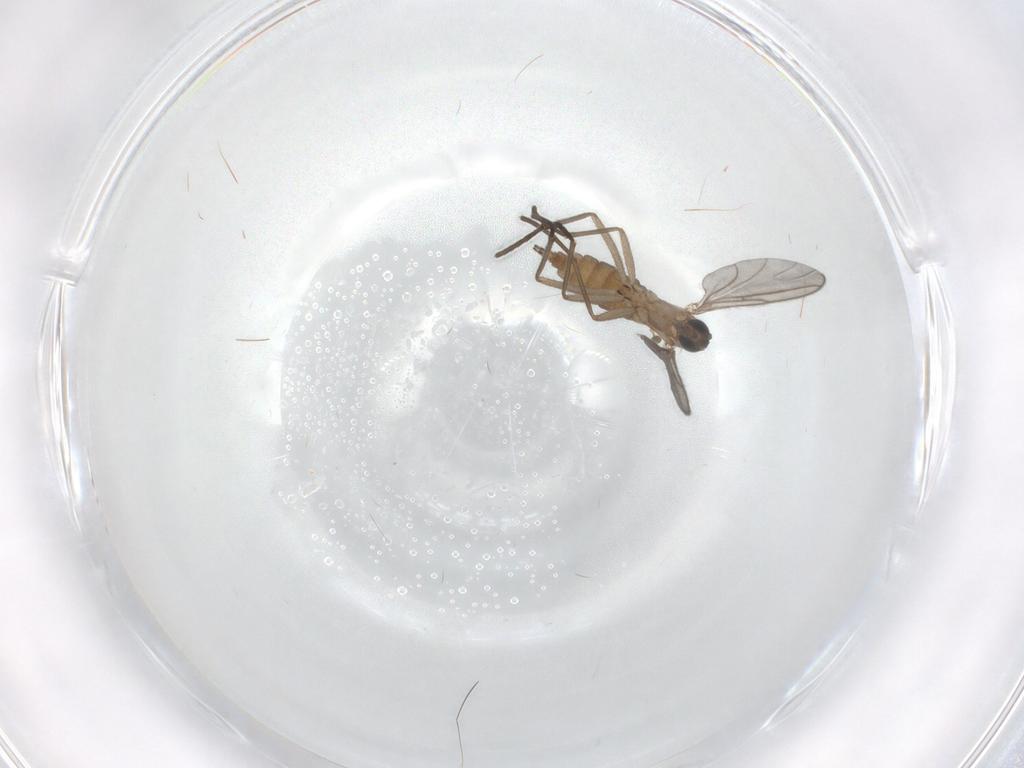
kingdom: Animalia
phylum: Arthropoda
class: Insecta
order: Diptera
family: Sciaridae
